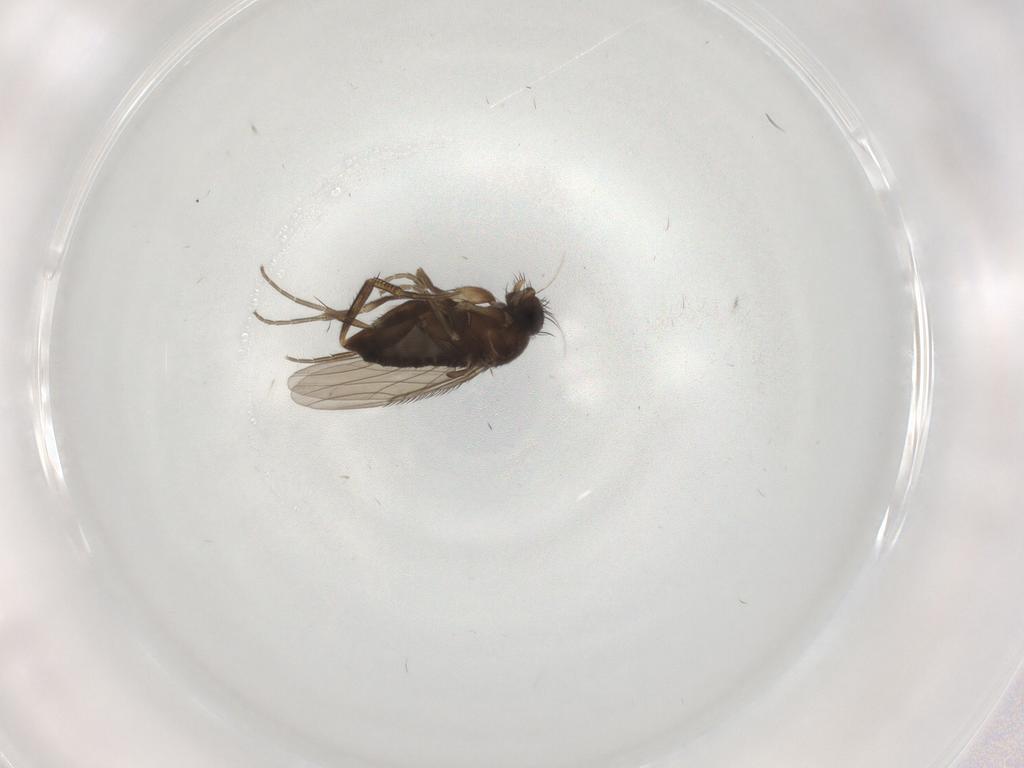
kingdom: Animalia
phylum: Arthropoda
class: Insecta
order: Diptera
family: Phoridae
